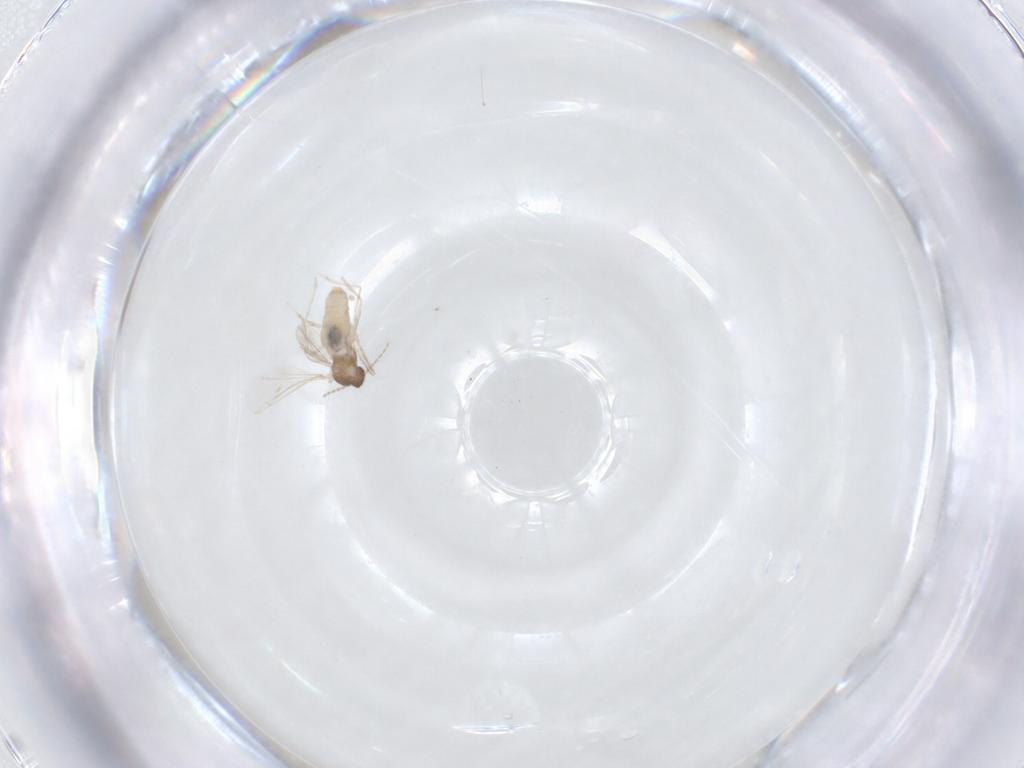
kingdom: Animalia
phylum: Arthropoda
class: Insecta
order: Diptera
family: Cecidomyiidae
